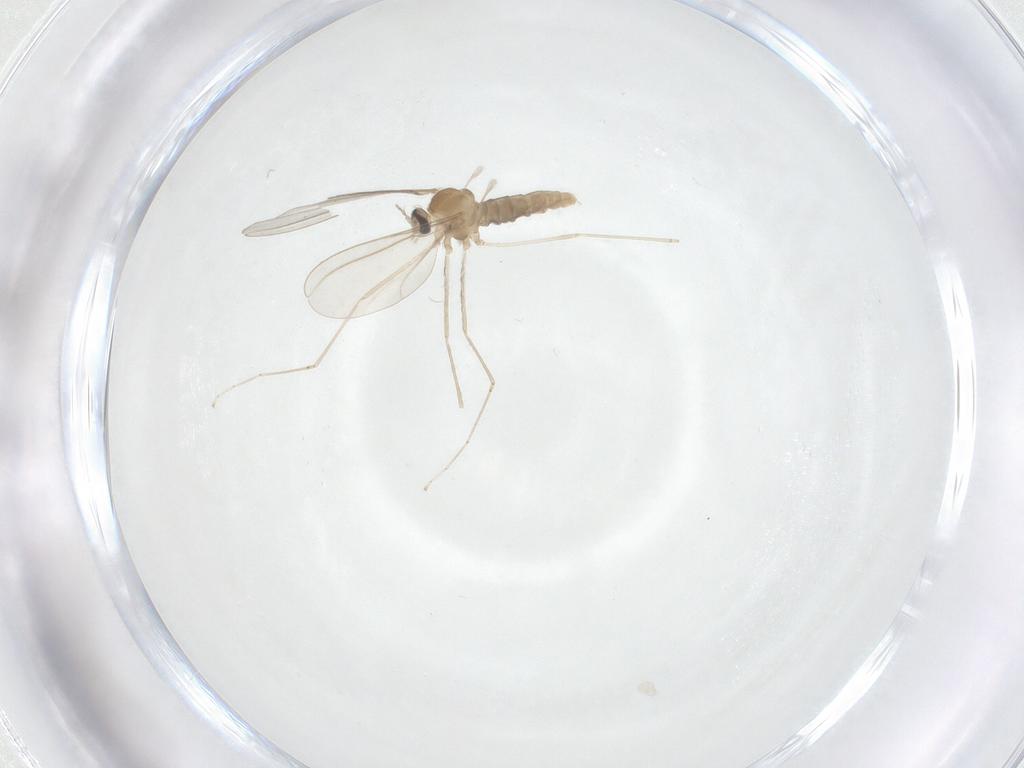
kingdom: Animalia
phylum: Arthropoda
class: Insecta
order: Diptera
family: Cecidomyiidae
